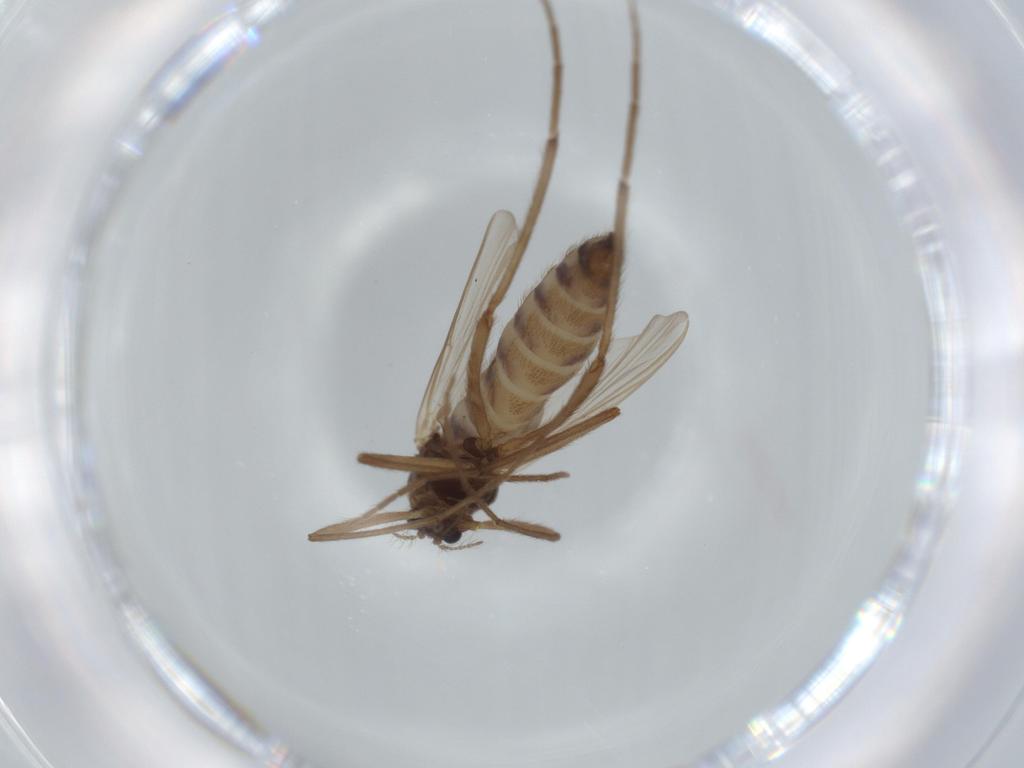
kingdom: Animalia
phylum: Arthropoda
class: Insecta
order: Diptera
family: Chironomidae
